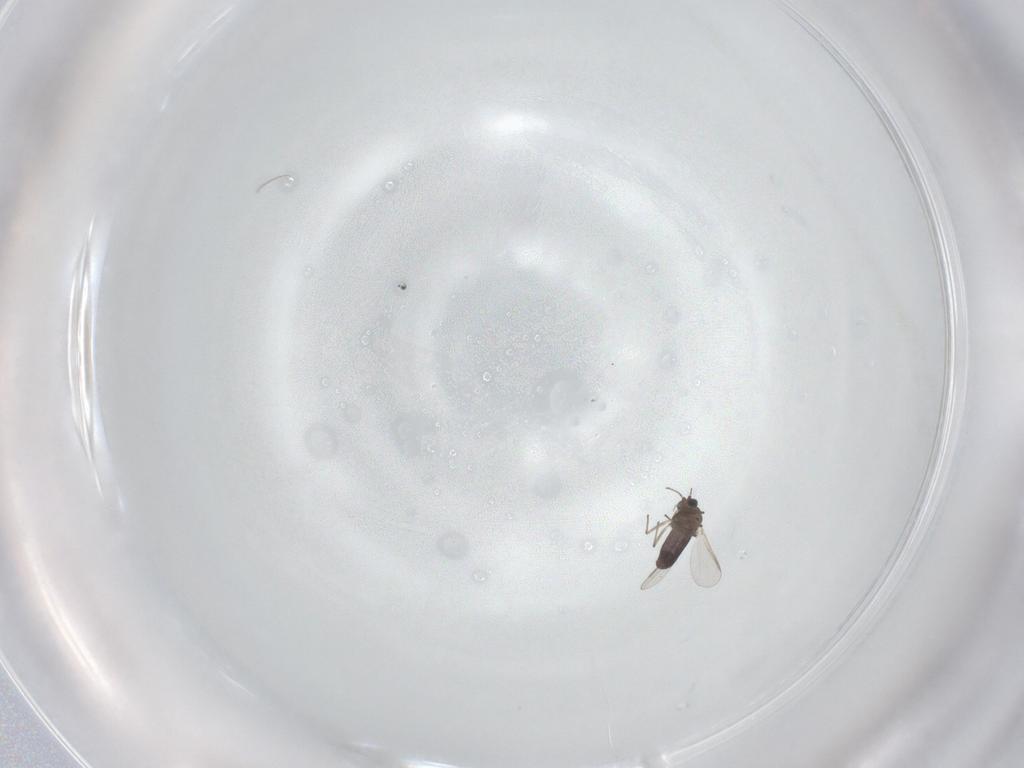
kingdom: Animalia
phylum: Arthropoda
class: Insecta
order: Diptera
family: Chironomidae
